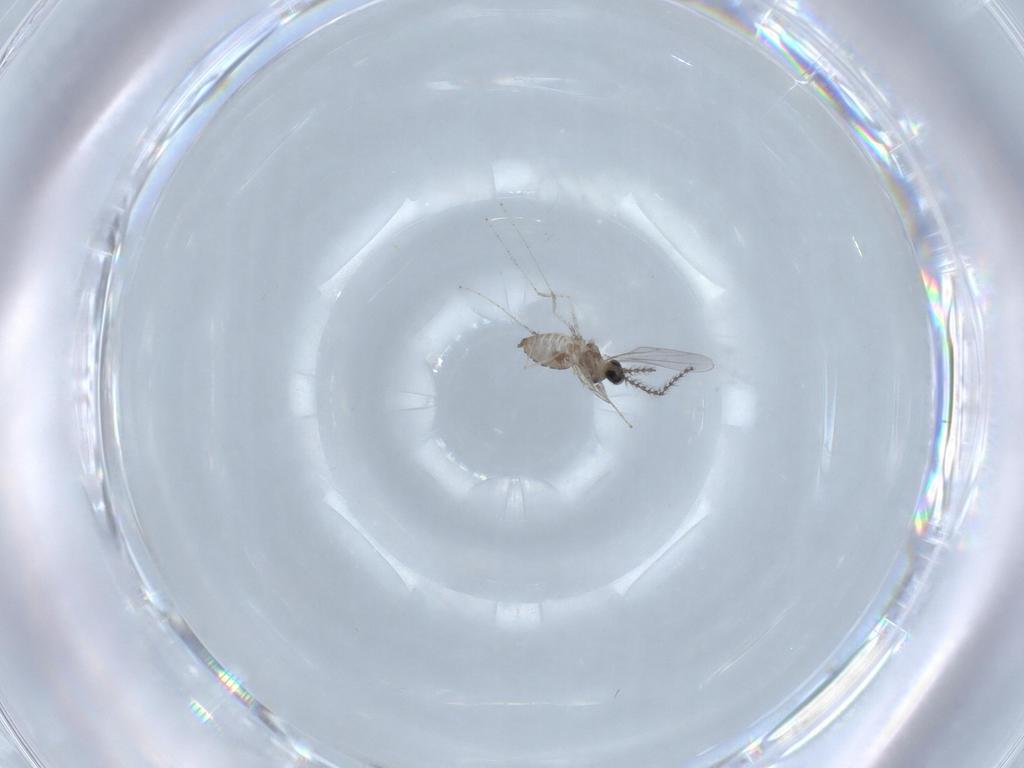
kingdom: Animalia
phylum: Arthropoda
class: Insecta
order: Diptera
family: Cecidomyiidae
